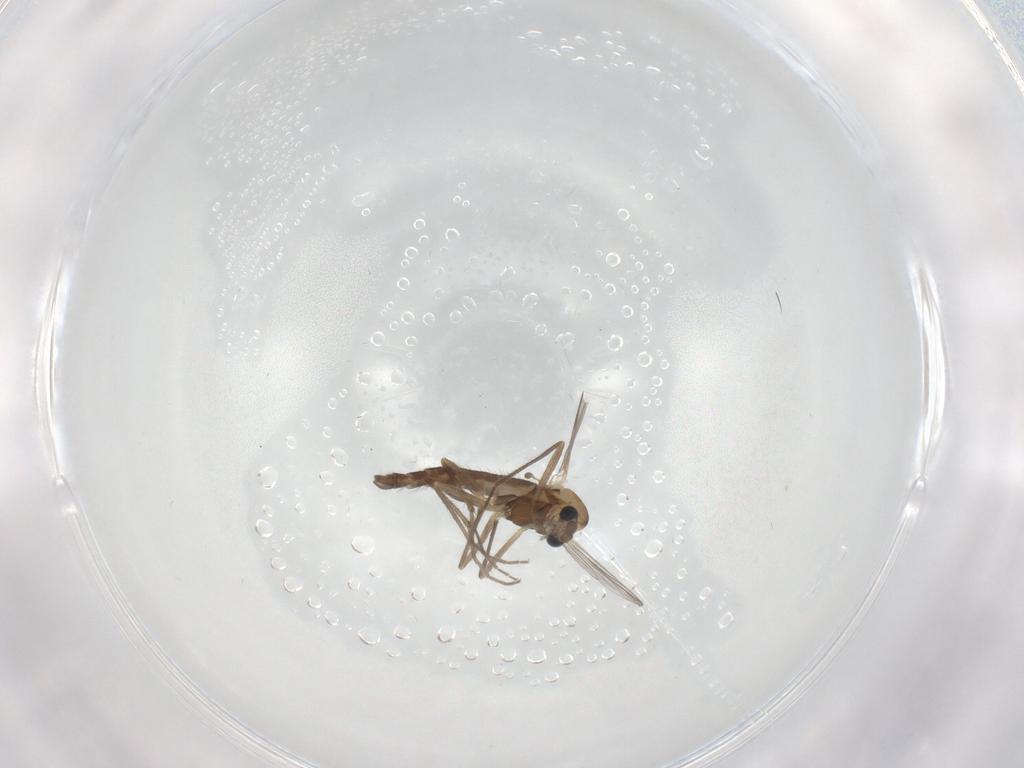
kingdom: Animalia
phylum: Arthropoda
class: Insecta
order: Diptera
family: Chironomidae
